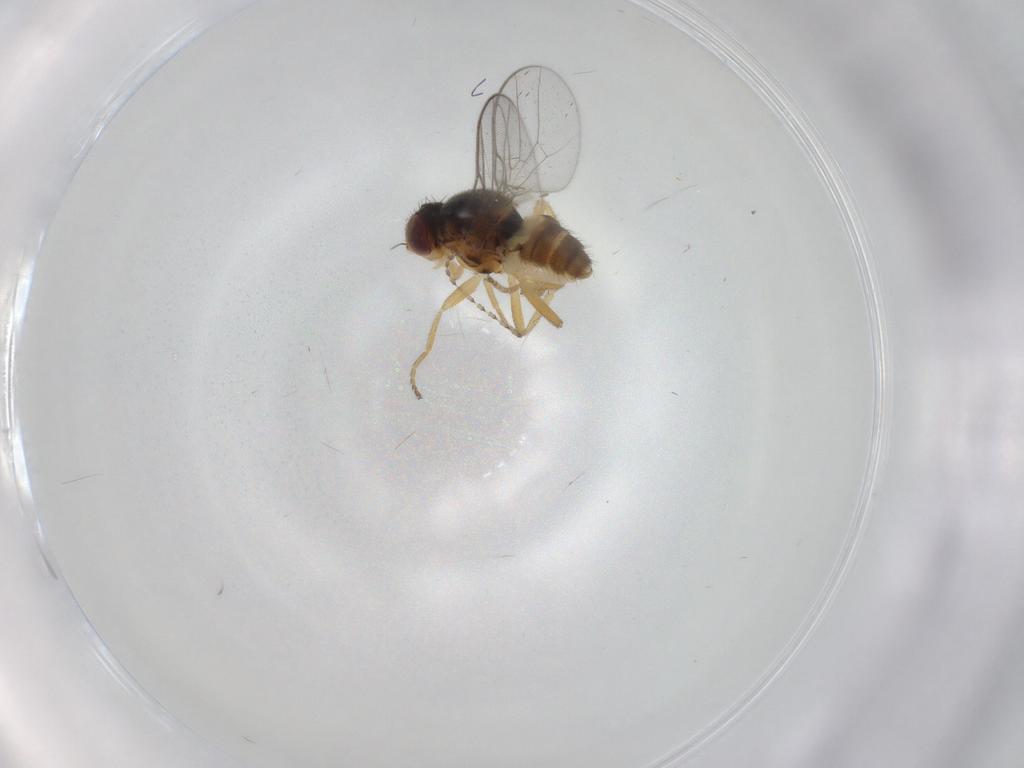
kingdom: Animalia
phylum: Arthropoda
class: Insecta
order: Diptera
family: Chloropidae
